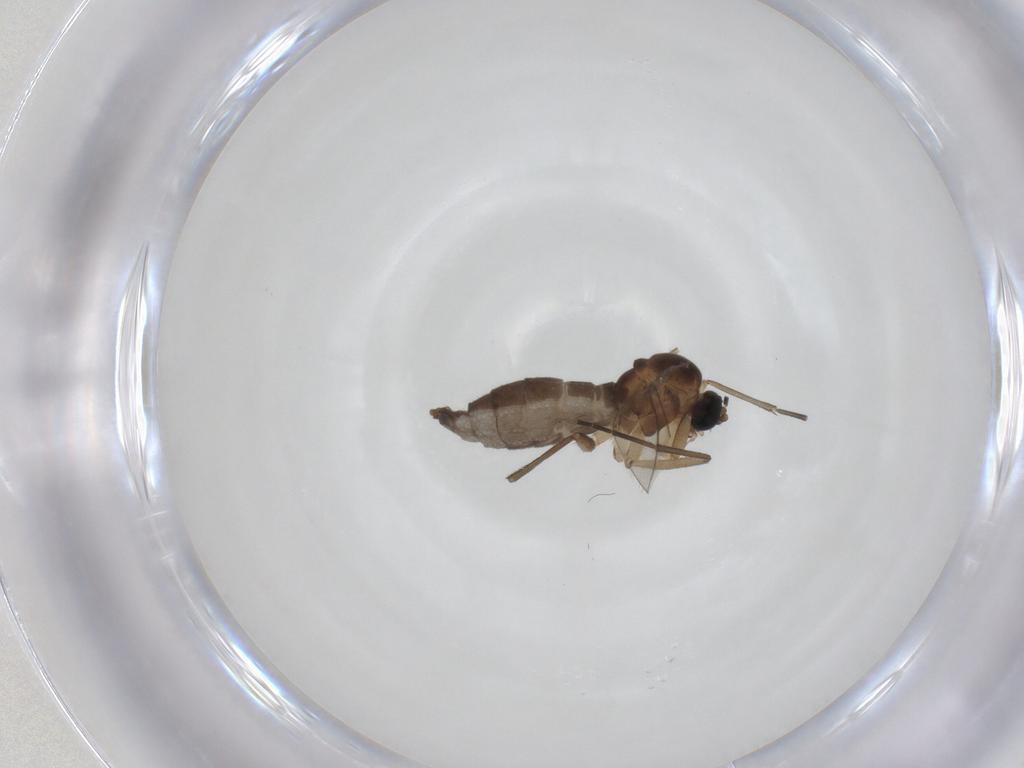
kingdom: Animalia
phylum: Arthropoda
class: Insecta
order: Diptera
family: Sciaridae
